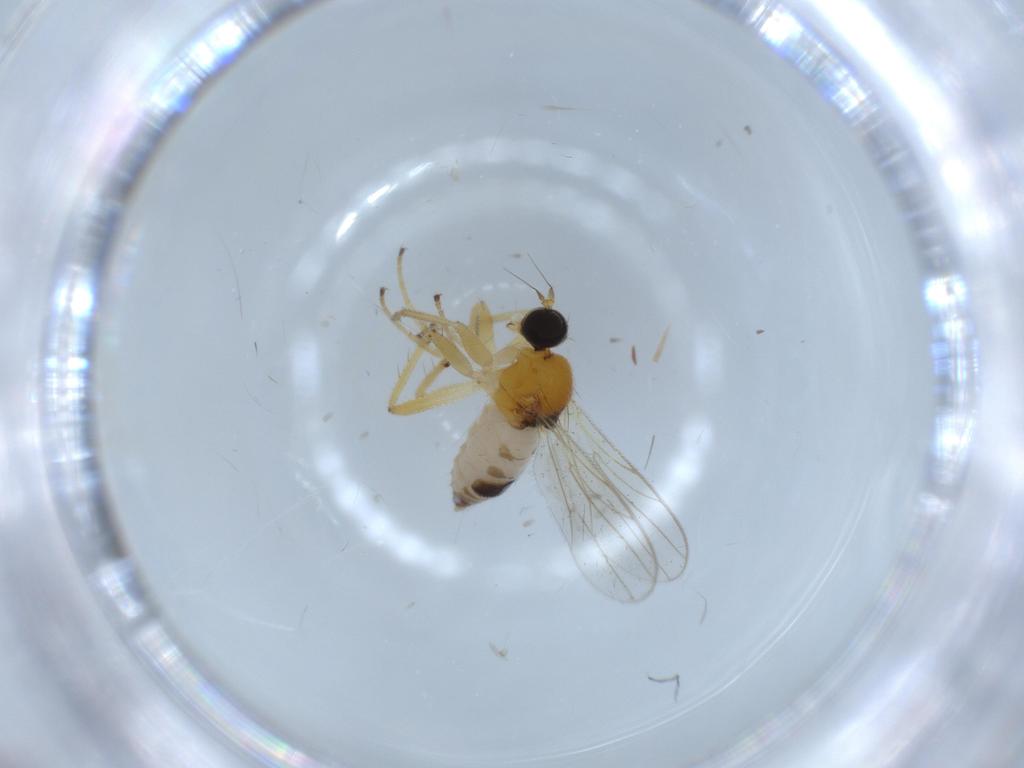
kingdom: Animalia
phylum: Arthropoda
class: Insecta
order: Diptera
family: Hybotidae
